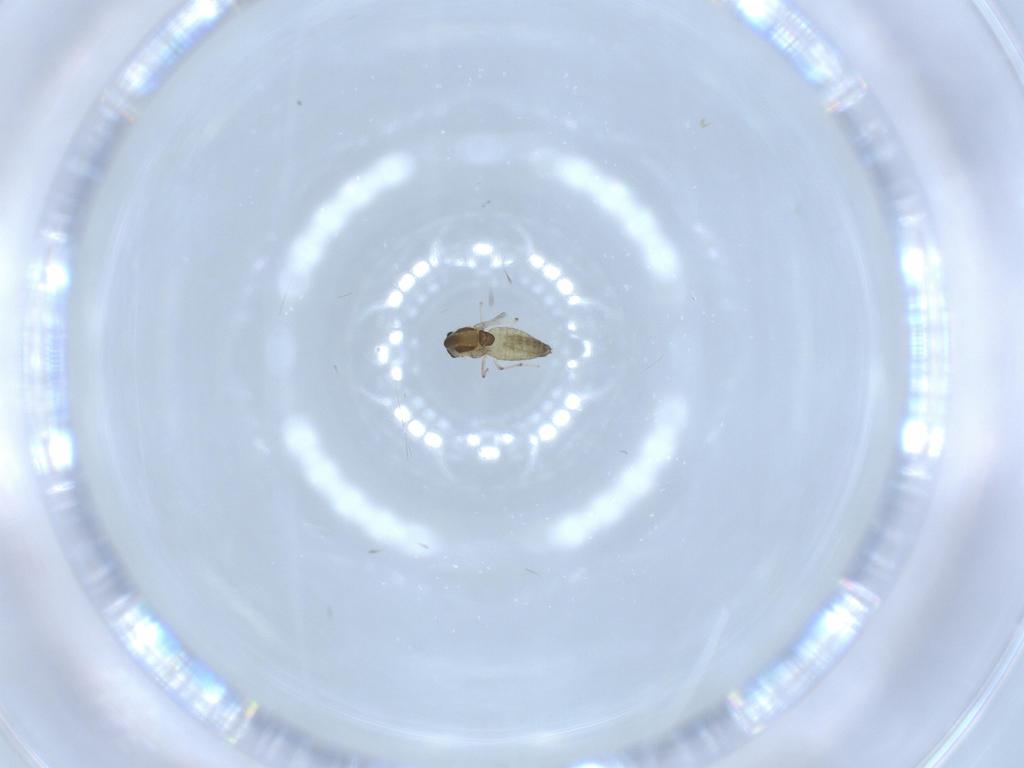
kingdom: Animalia
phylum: Arthropoda
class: Insecta
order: Diptera
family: Chironomidae
